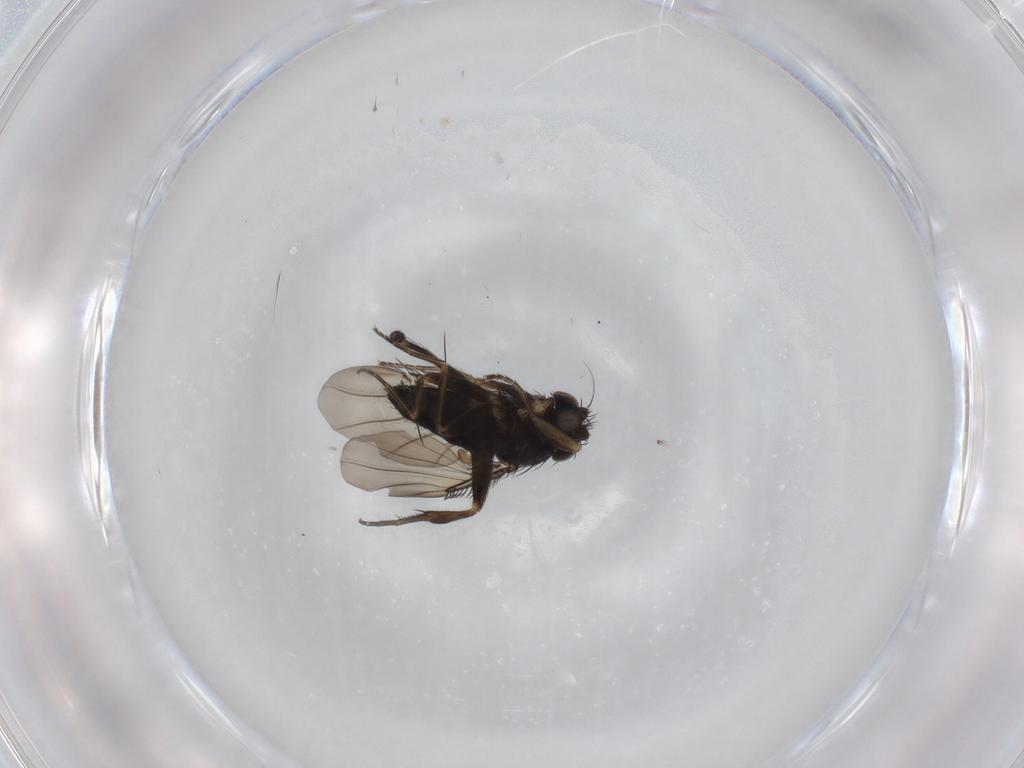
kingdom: Animalia
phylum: Arthropoda
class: Insecta
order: Diptera
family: Phoridae
